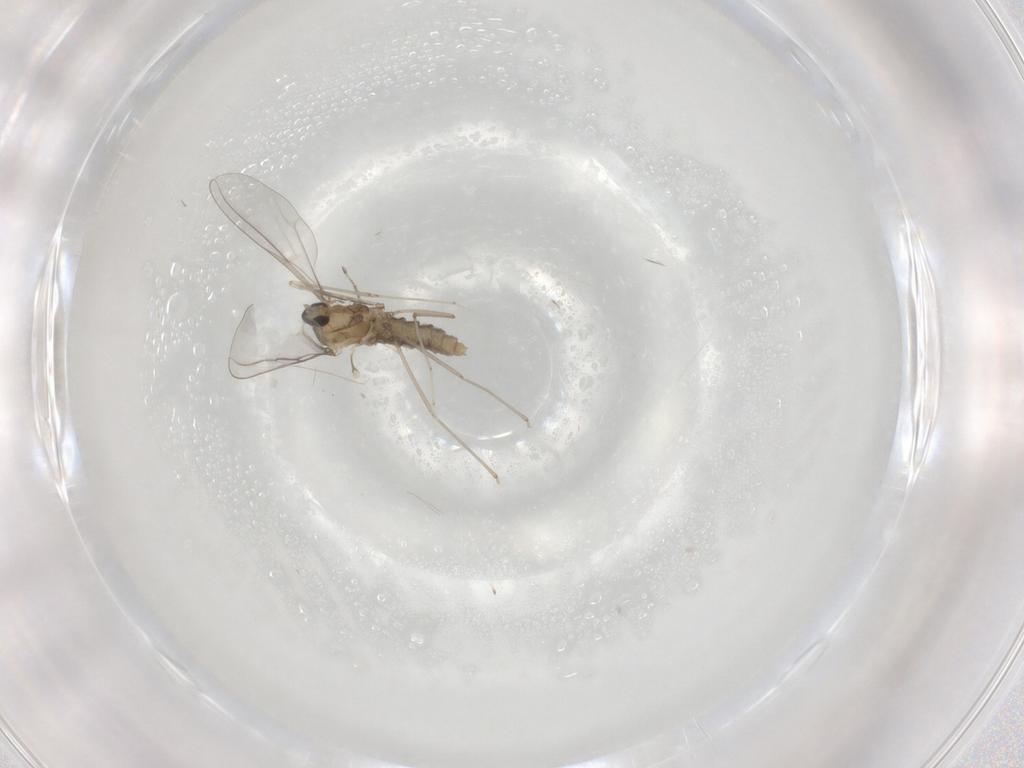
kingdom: Animalia
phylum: Arthropoda
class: Insecta
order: Diptera
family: Cecidomyiidae
